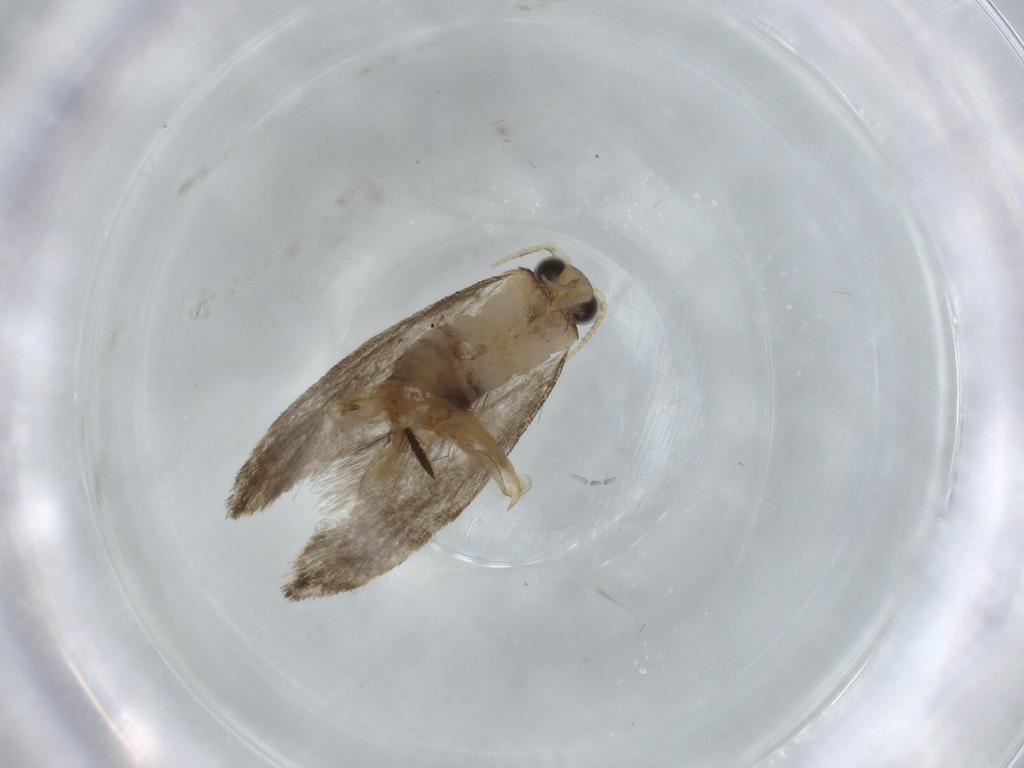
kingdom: Animalia
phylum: Arthropoda
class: Insecta
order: Lepidoptera
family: Tineidae
